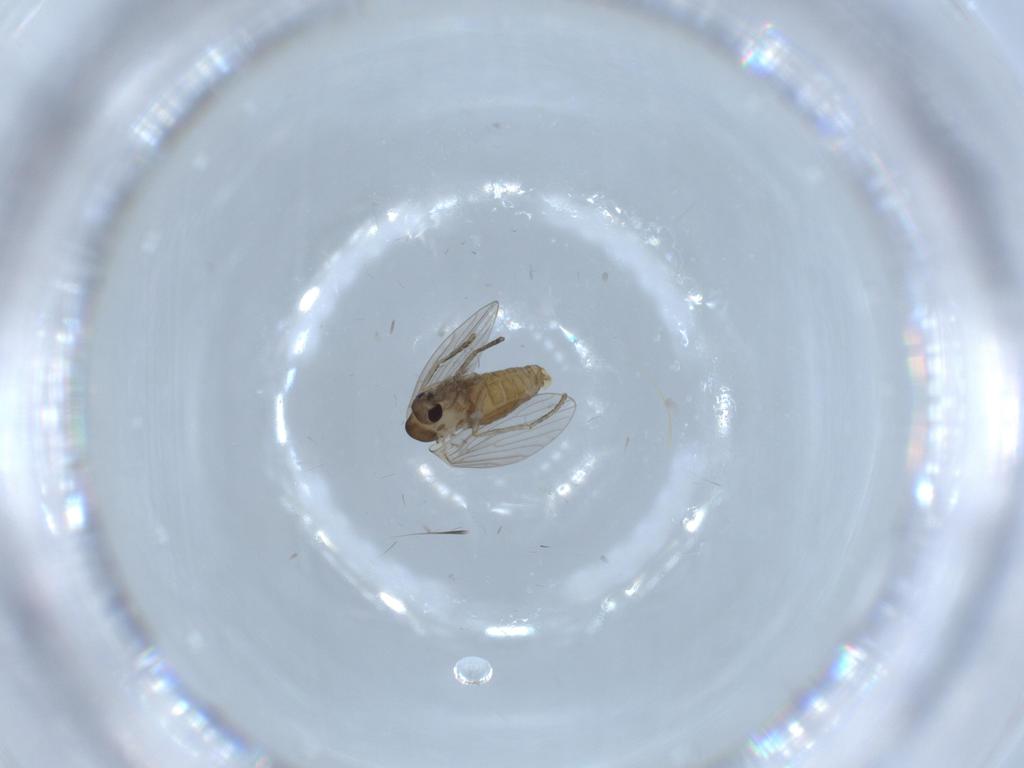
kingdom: Animalia
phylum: Arthropoda
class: Insecta
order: Diptera
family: Psychodidae
